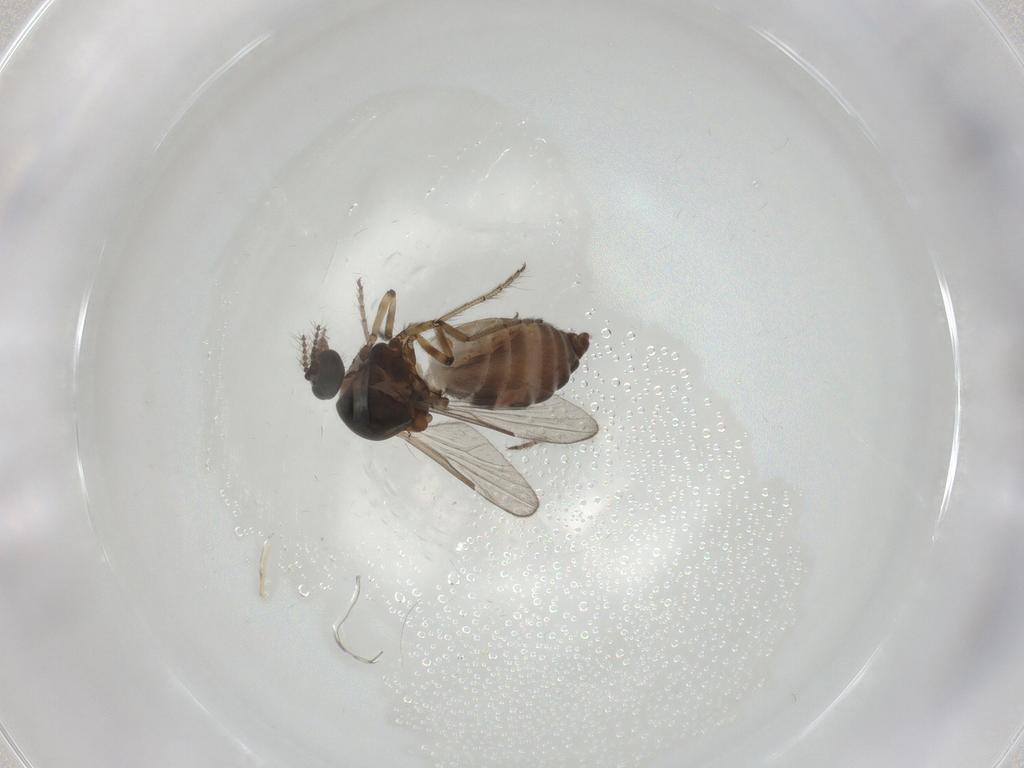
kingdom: Animalia
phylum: Arthropoda
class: Insecta
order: Diptera
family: Ceratopogonidae
